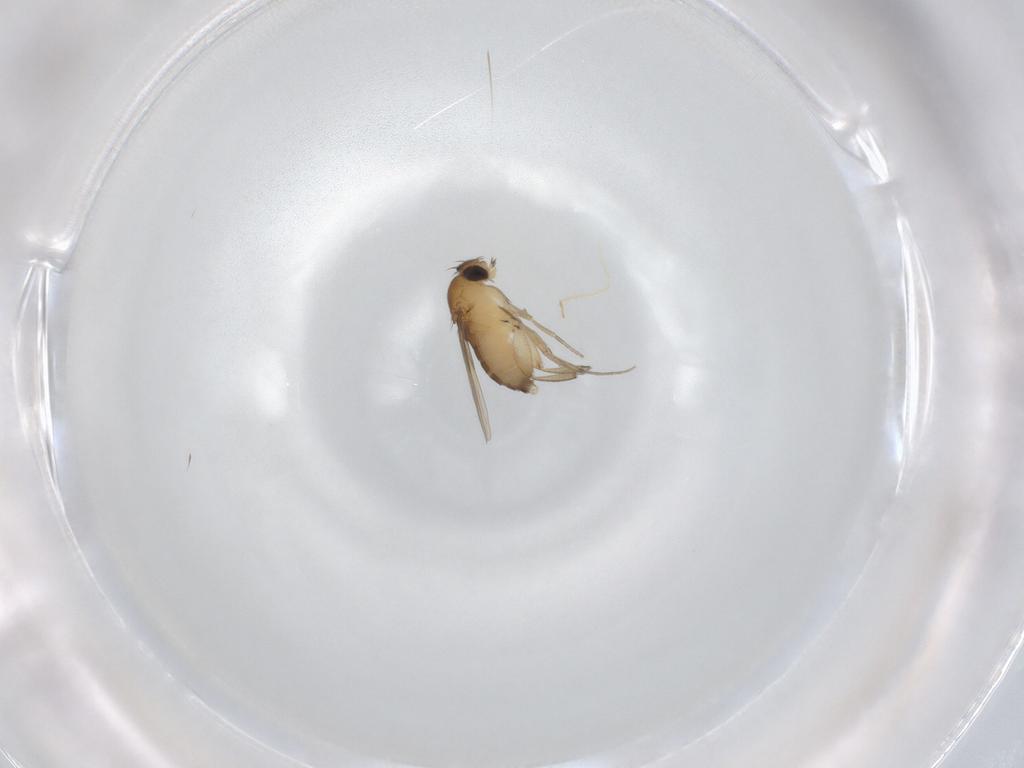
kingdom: Animalia
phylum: Arthropoda
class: Insecta
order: Diptera
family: Phoridae
